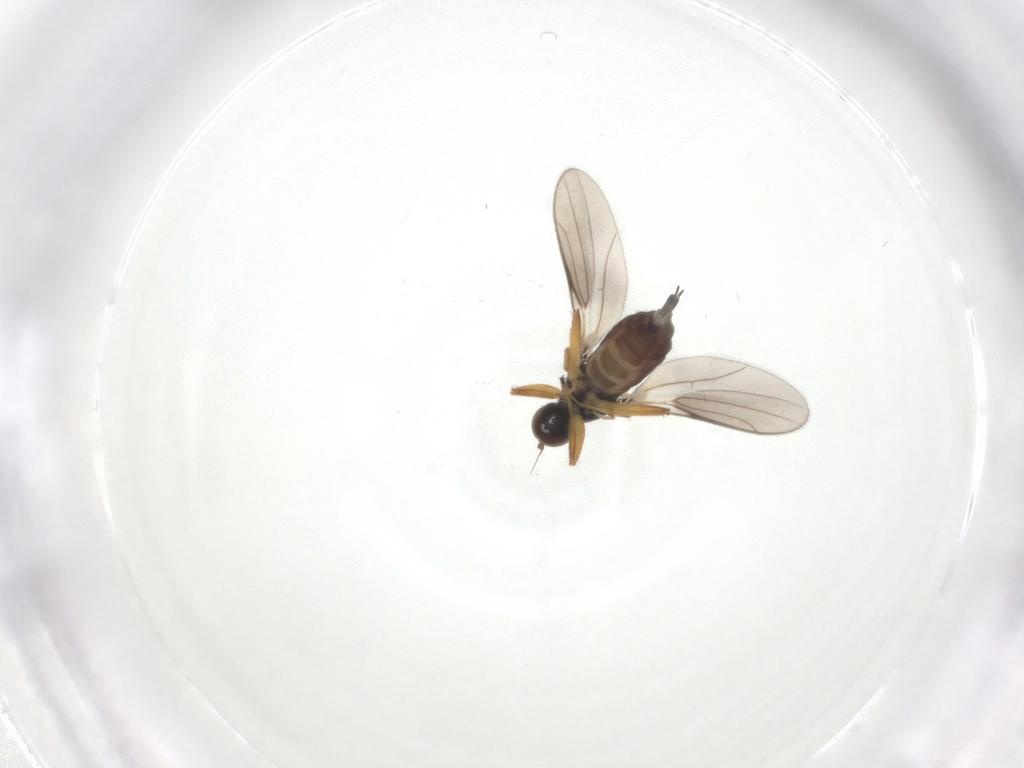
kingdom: Animalia
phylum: Arthropoda
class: Insecta
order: Diptera
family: Hybotidae
